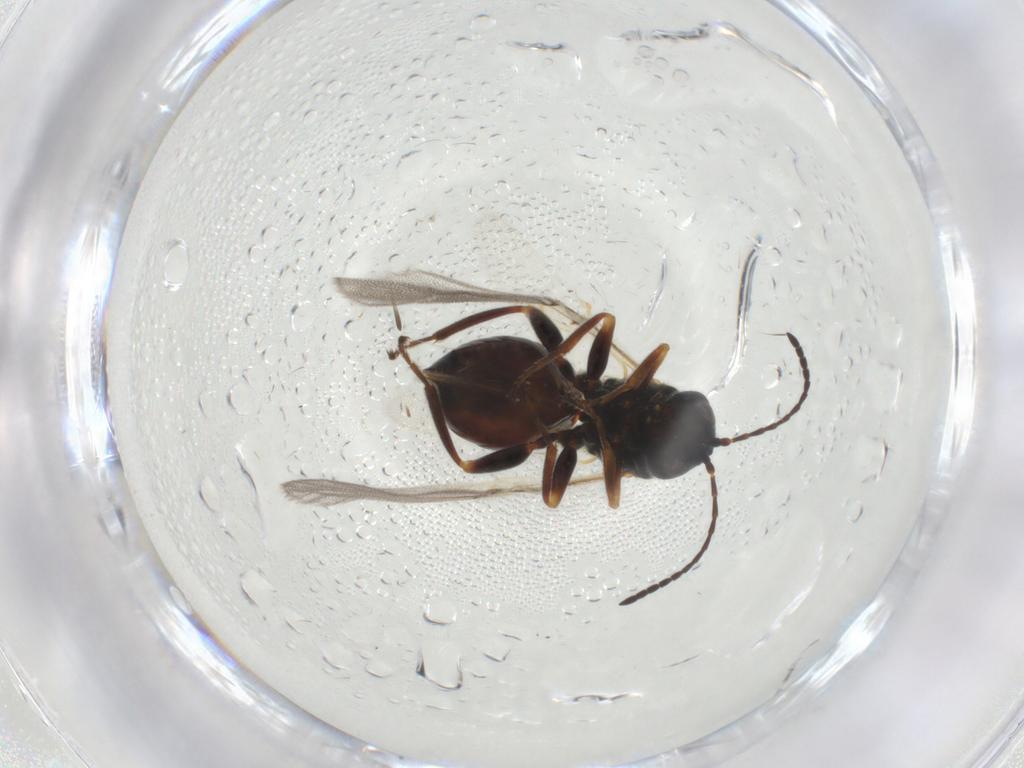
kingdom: Animalia
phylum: Arthropoda
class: Insecta
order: Hymenoptera
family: Cynipidae
